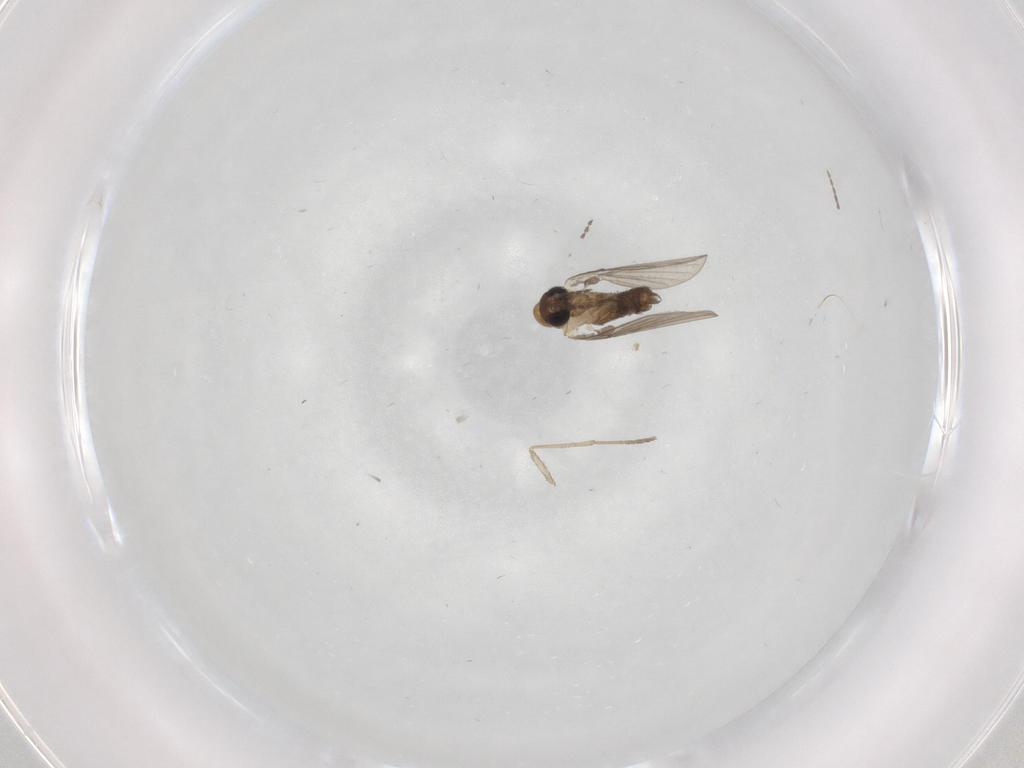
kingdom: Animalia
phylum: Arthropoda
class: Insecta
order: Diptera
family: Psychodidae
